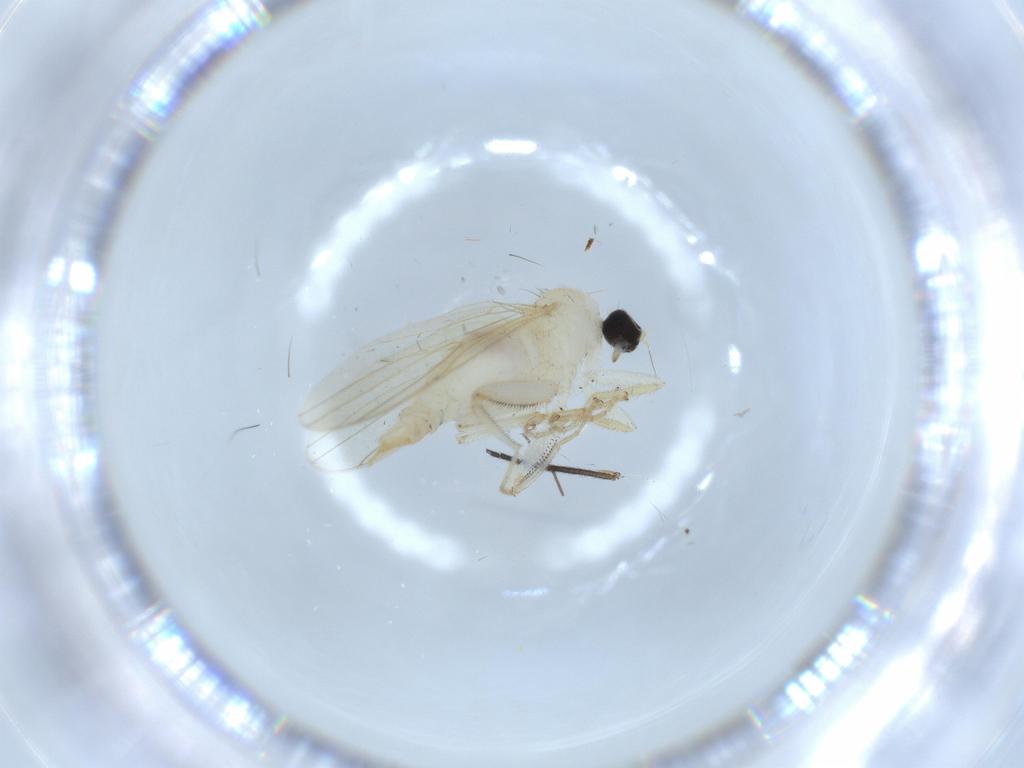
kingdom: Animalia
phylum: Arthropoda
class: Insecta
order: Diptera
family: Hybotidae
